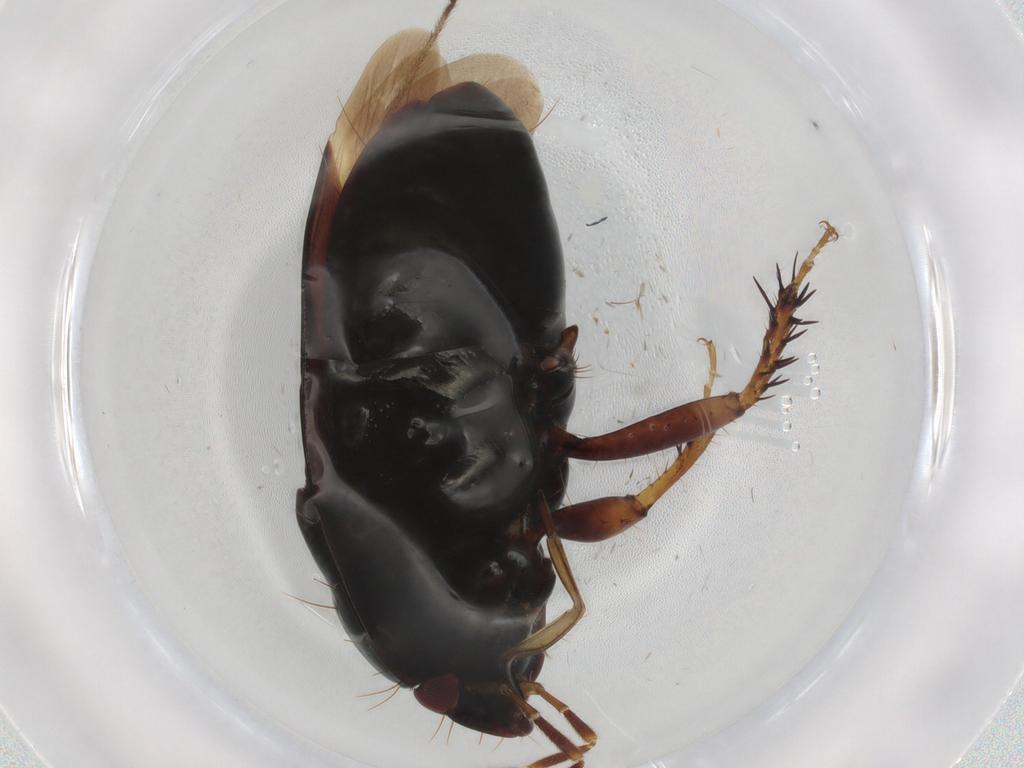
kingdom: Animalia
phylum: Arthropoda
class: Insecta
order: Hemiptera
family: Cydnidae
